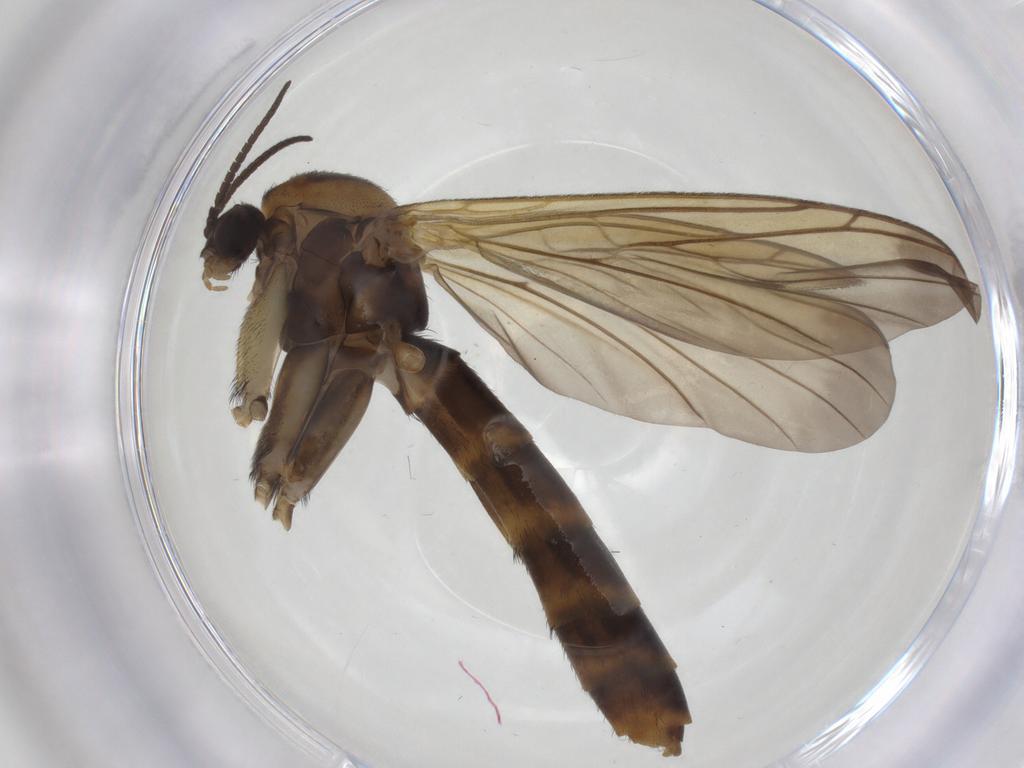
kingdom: Animalia
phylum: Arthropoda
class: Insecta
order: Diptera
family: Keroplatidae
